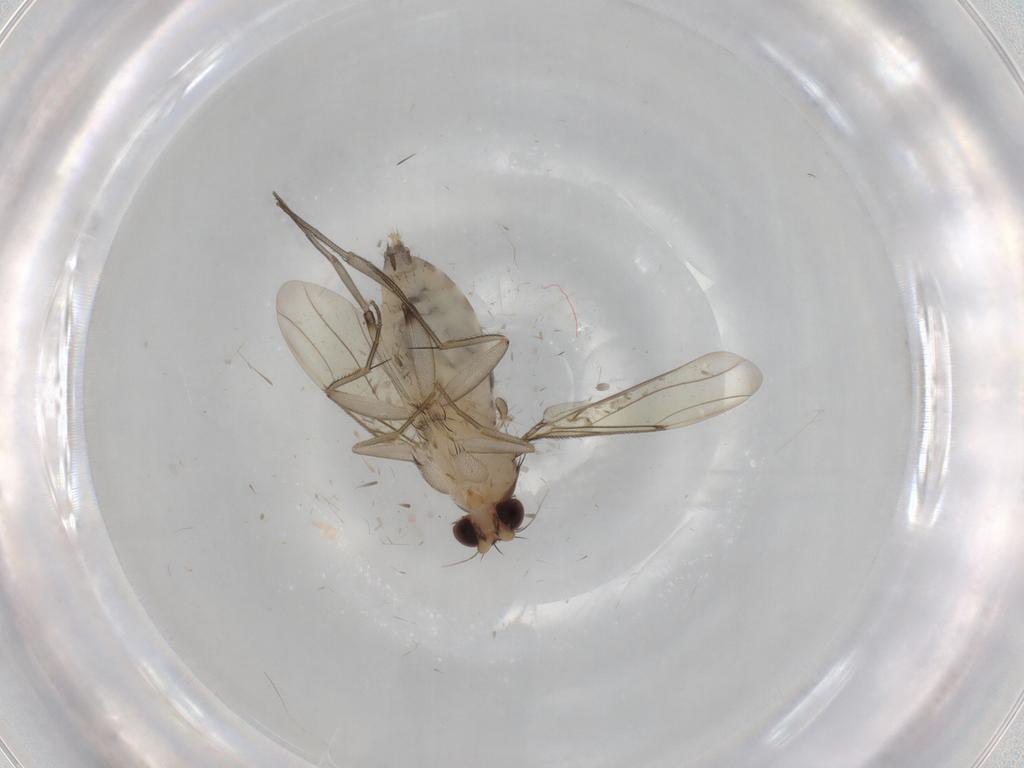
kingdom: Animalia
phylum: Arthropoda
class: Insecta
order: Diptera
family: Phoridae
